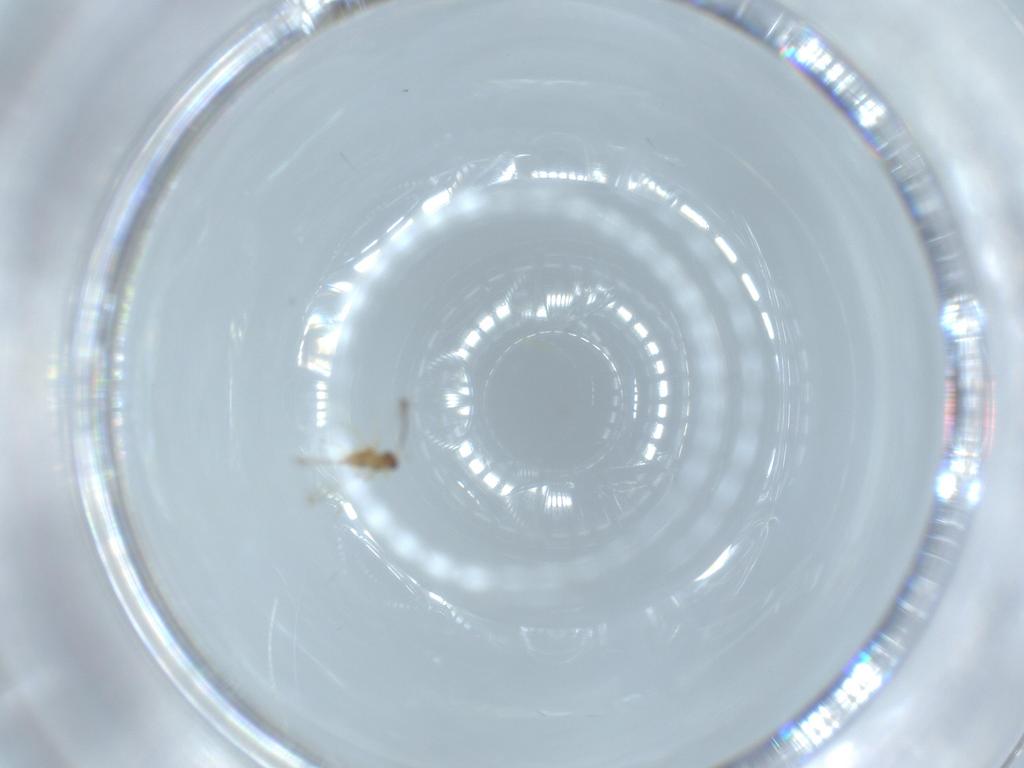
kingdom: Animalia
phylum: Arthropoda
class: Insecta
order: Hymenoptera
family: Mymaridae
